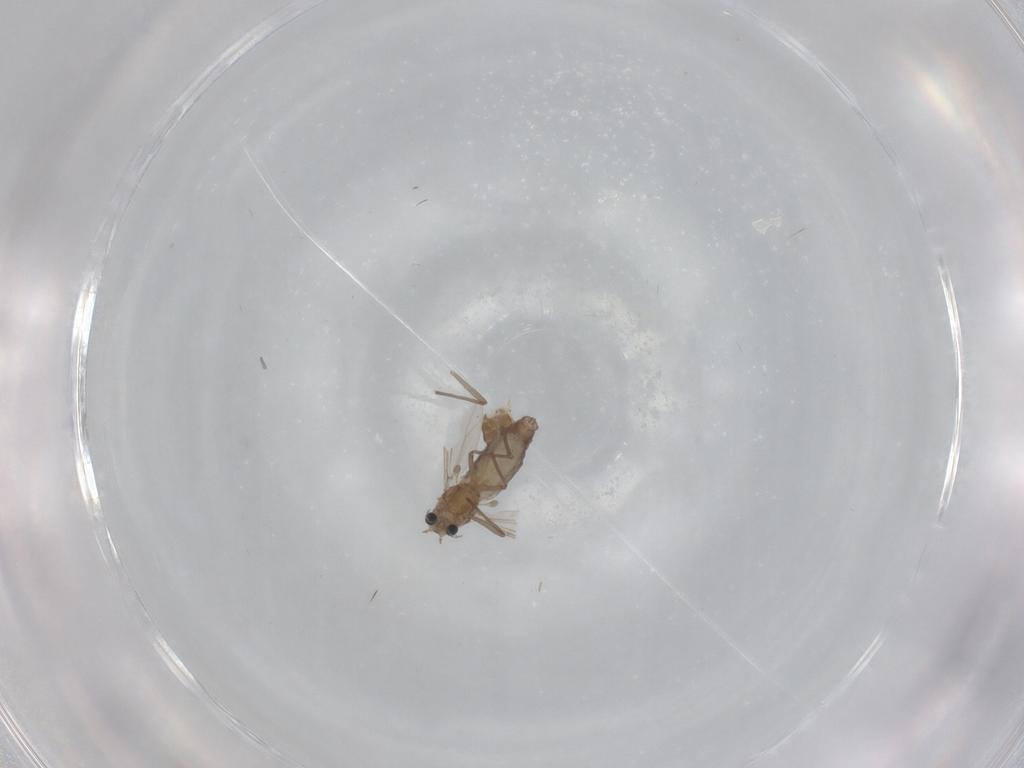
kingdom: Animalia
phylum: Arthropoda
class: Insecta
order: Diptera
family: Chironomidae
